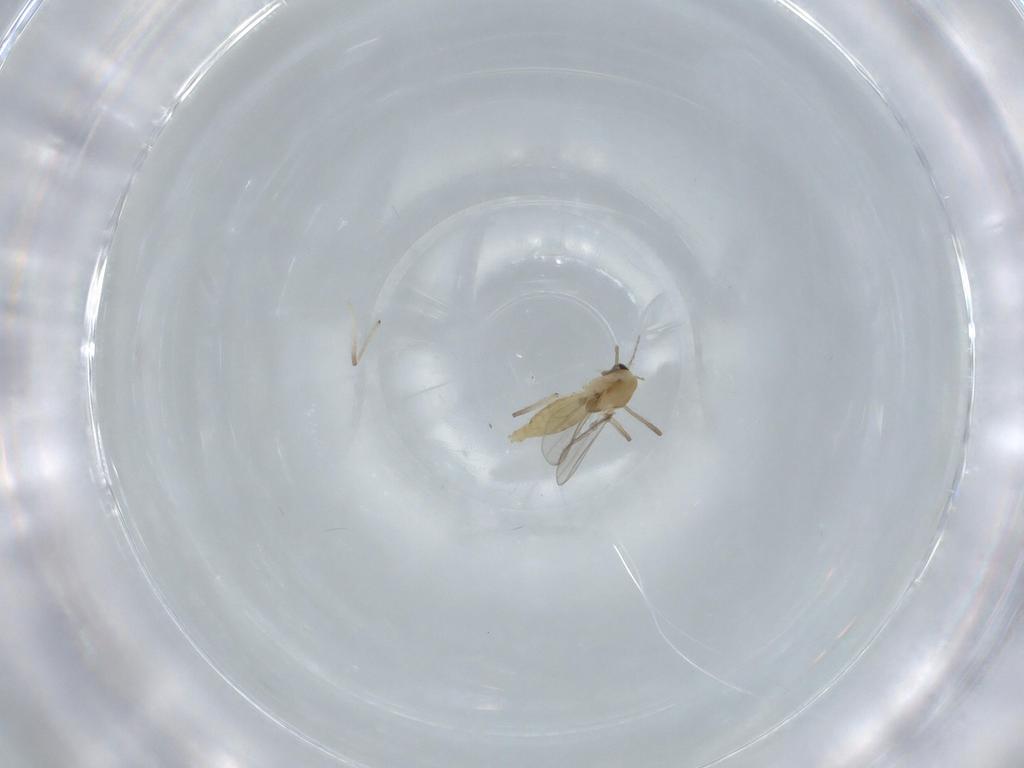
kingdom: Animalia
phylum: Arthropoda
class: Insecta
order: Diptera
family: Chironomidae
